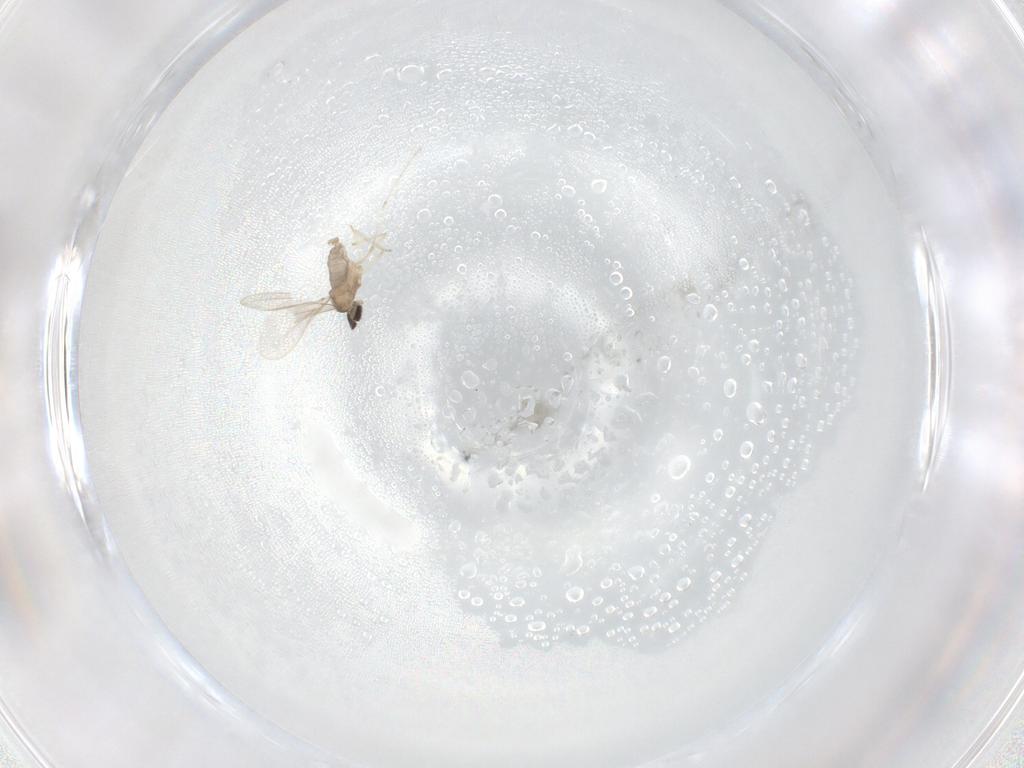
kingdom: Animalia
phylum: Arthropoda
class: Insecta
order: Diptera
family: Cecidomyiidae
